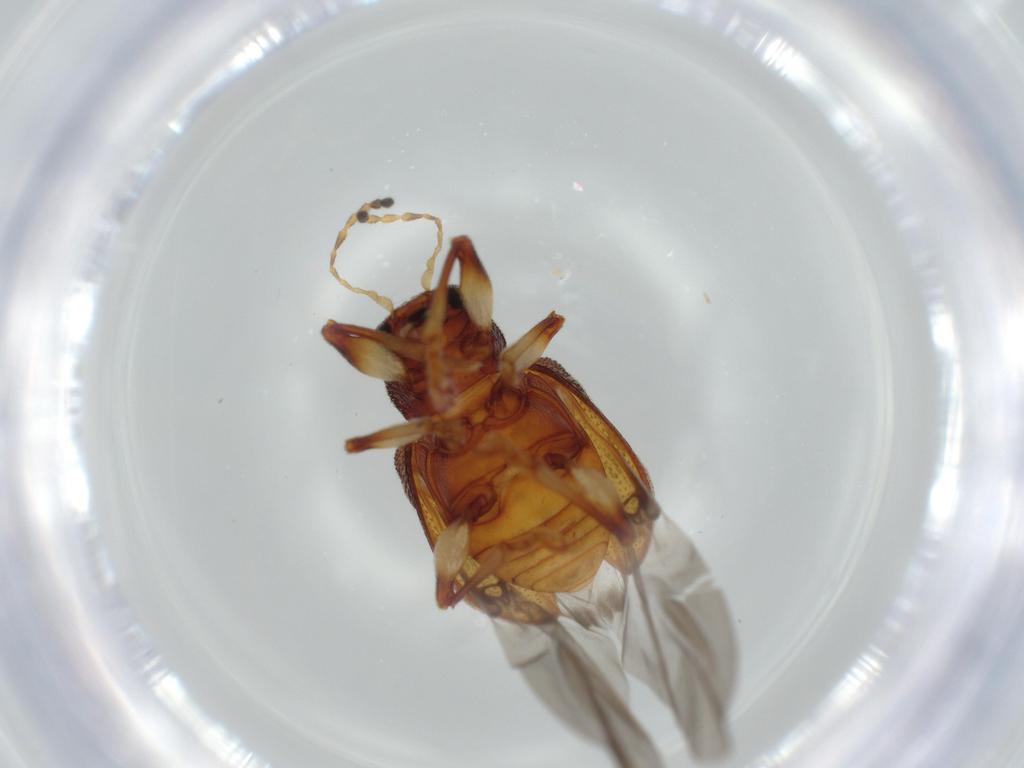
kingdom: Animalia
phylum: Arthropoda
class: Insecta
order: Coleoptera
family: Chrysomelidae
